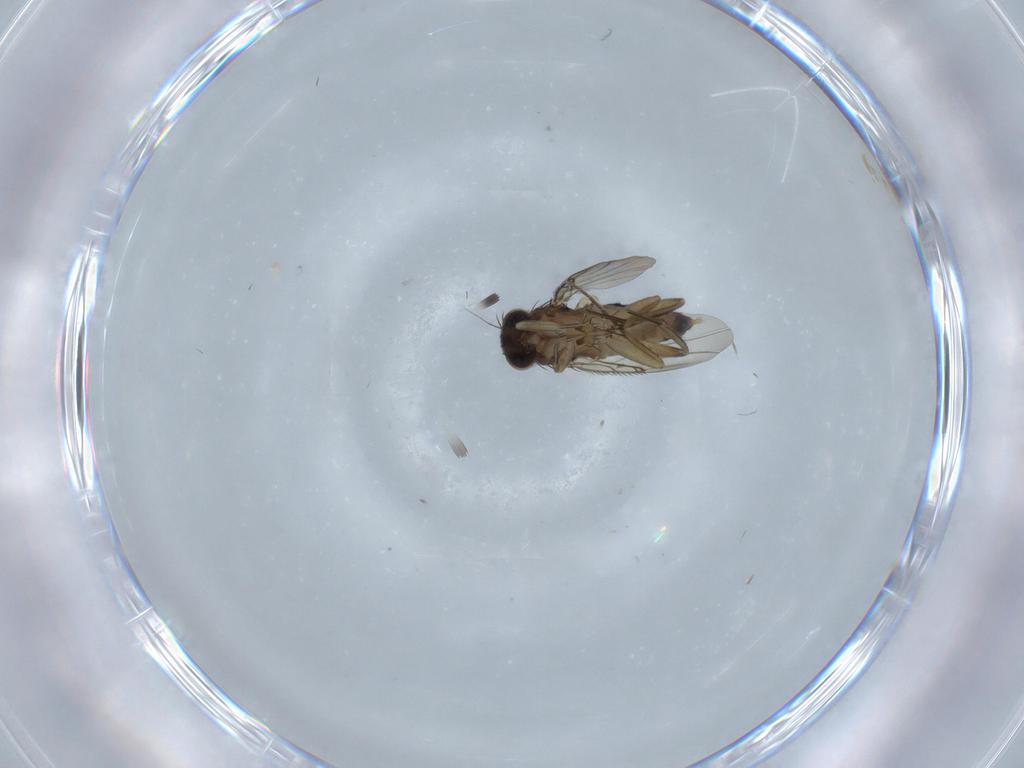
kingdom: Animalia
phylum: Arthropoda
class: Insecta
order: Diptera
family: Phoridae
